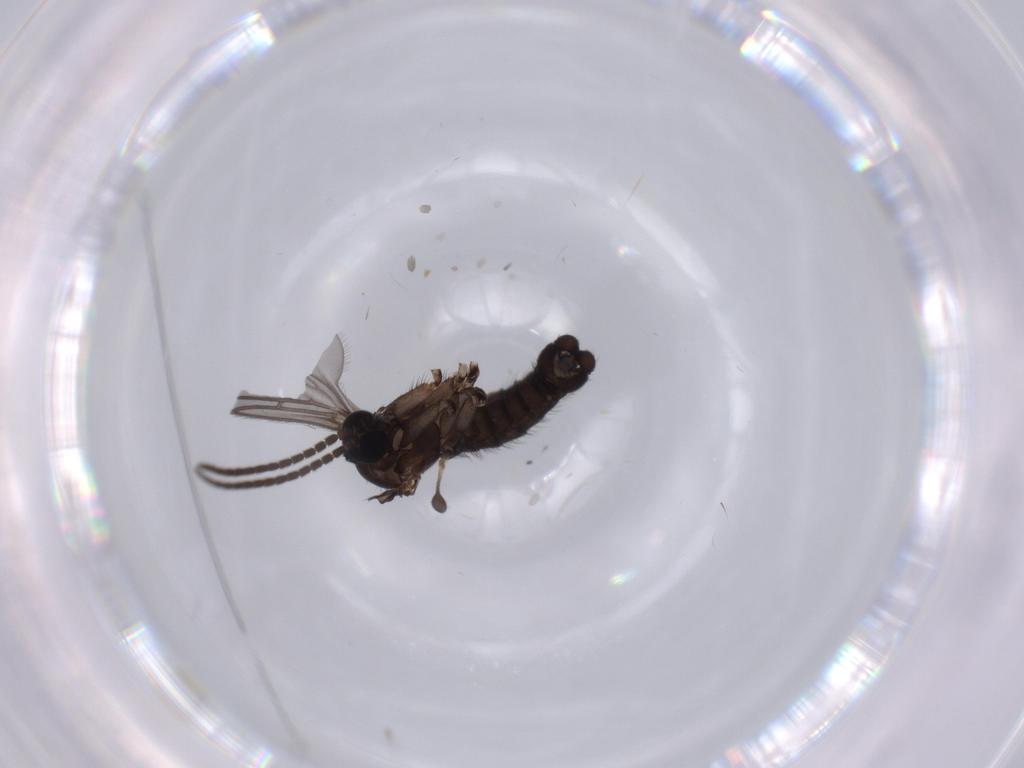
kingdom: Animalia
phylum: Arthropoda
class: Insecta
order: Diptera
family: Sciaridae
